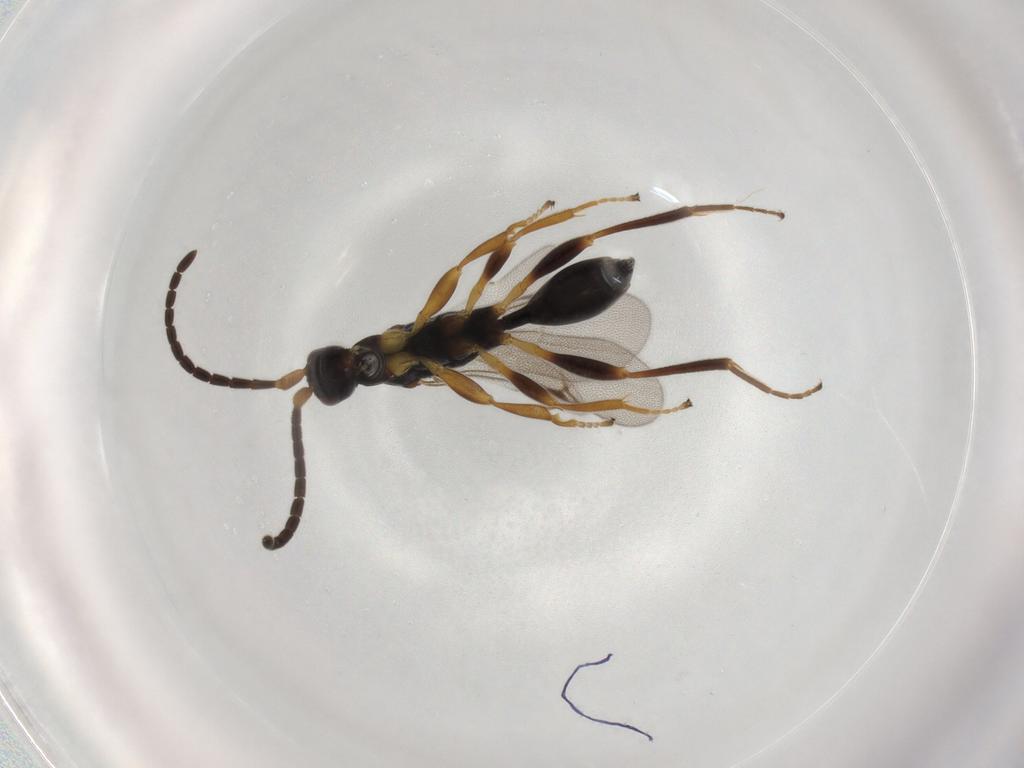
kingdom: Animalia
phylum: Arthropoda
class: Insecta
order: Hymenoptera
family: Proctotrupidae
